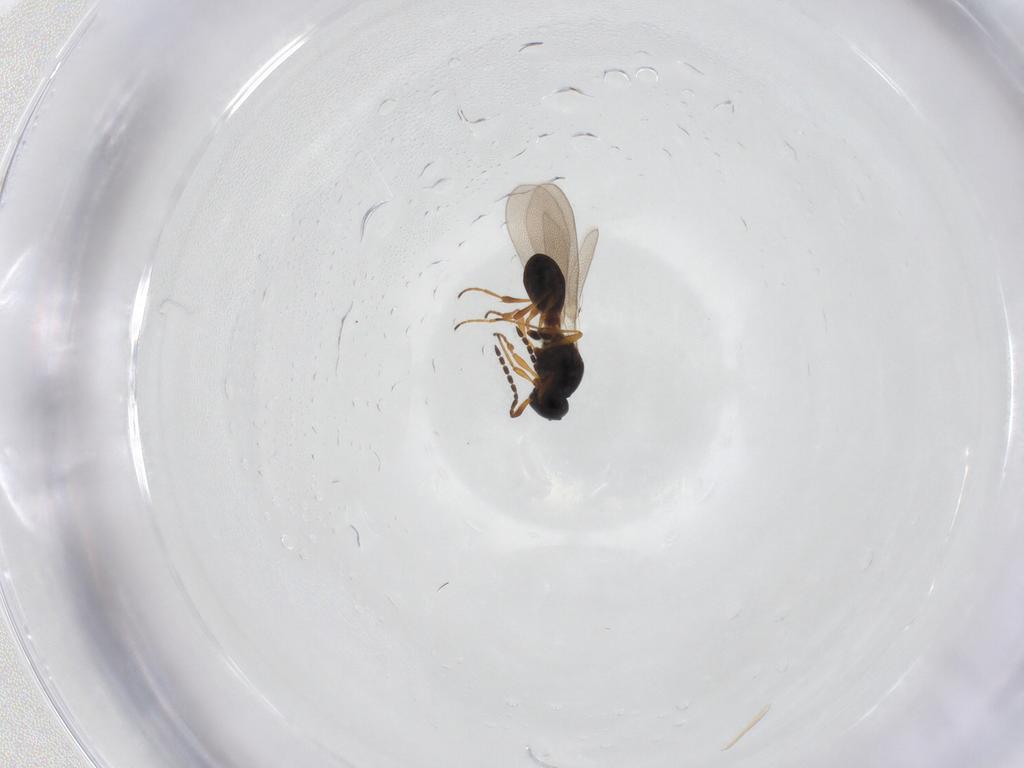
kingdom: Animalia
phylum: Arthropoda
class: Insecta
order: Hymenoptera
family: Platygastridae
